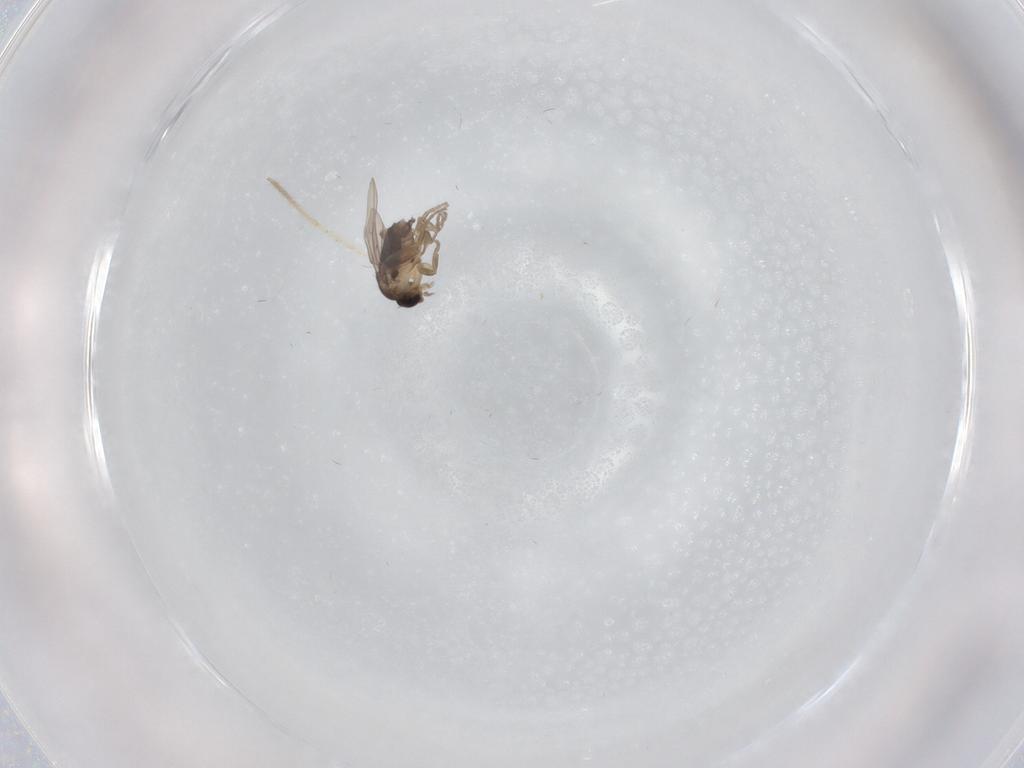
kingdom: Animalia
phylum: Arthropoda
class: Insecta
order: Diptera
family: Chironomidae
